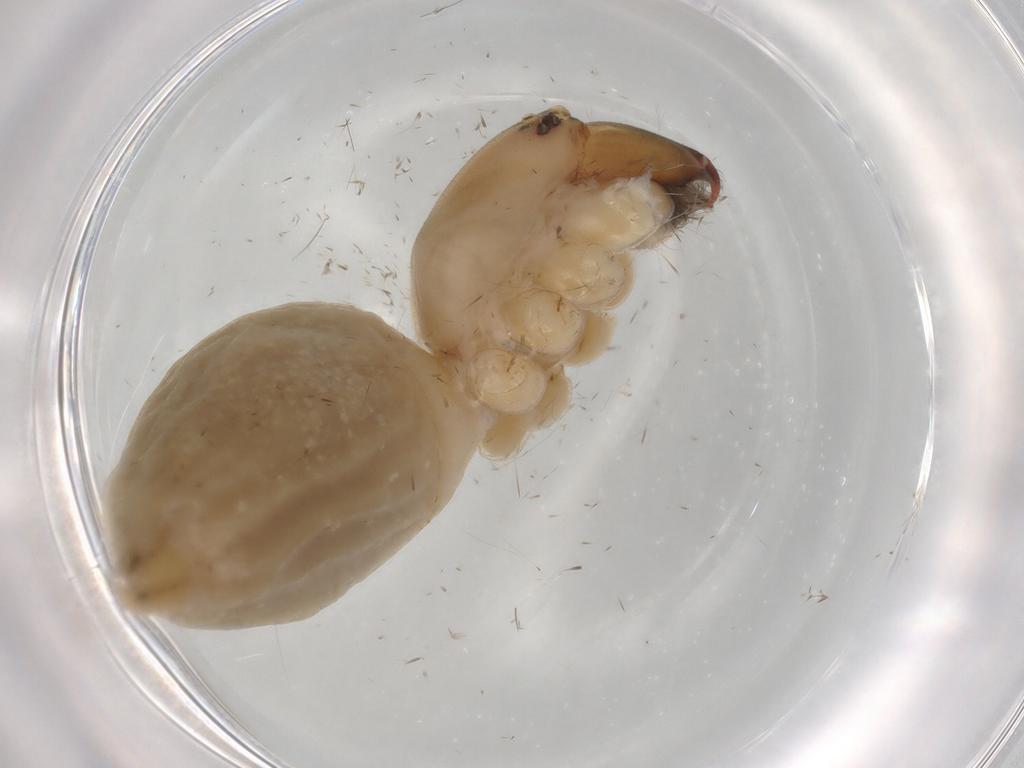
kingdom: Animalia
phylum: Arthropoda
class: Arachnida
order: Araneae
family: Cheiracanthiidae
